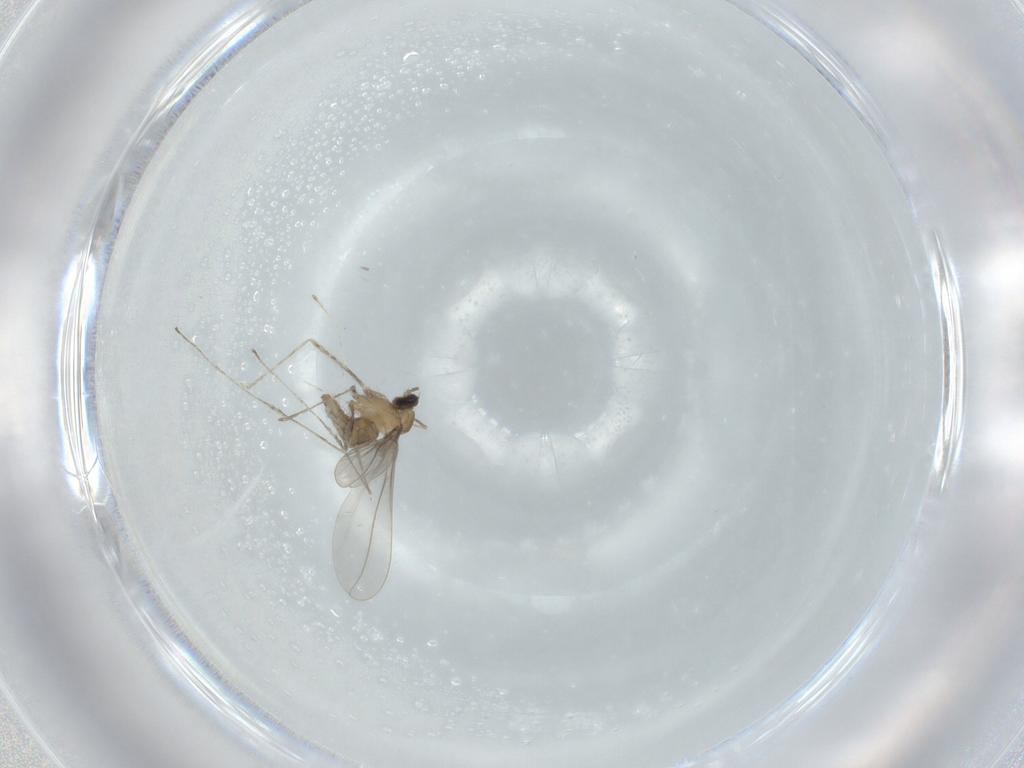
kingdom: Animalia
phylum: Arthropoda
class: Insecta
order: Diptera
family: Cecidomyiidae
